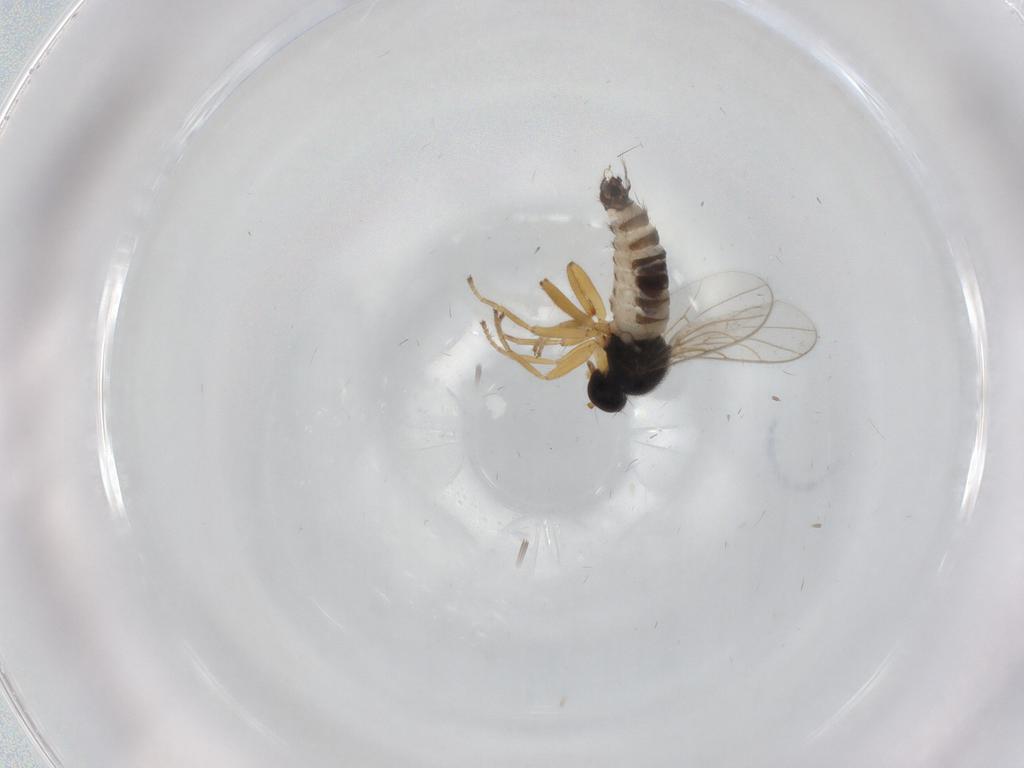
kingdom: Animalia
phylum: Arthropoda
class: Insecta
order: Diptera
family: Hybotidae
